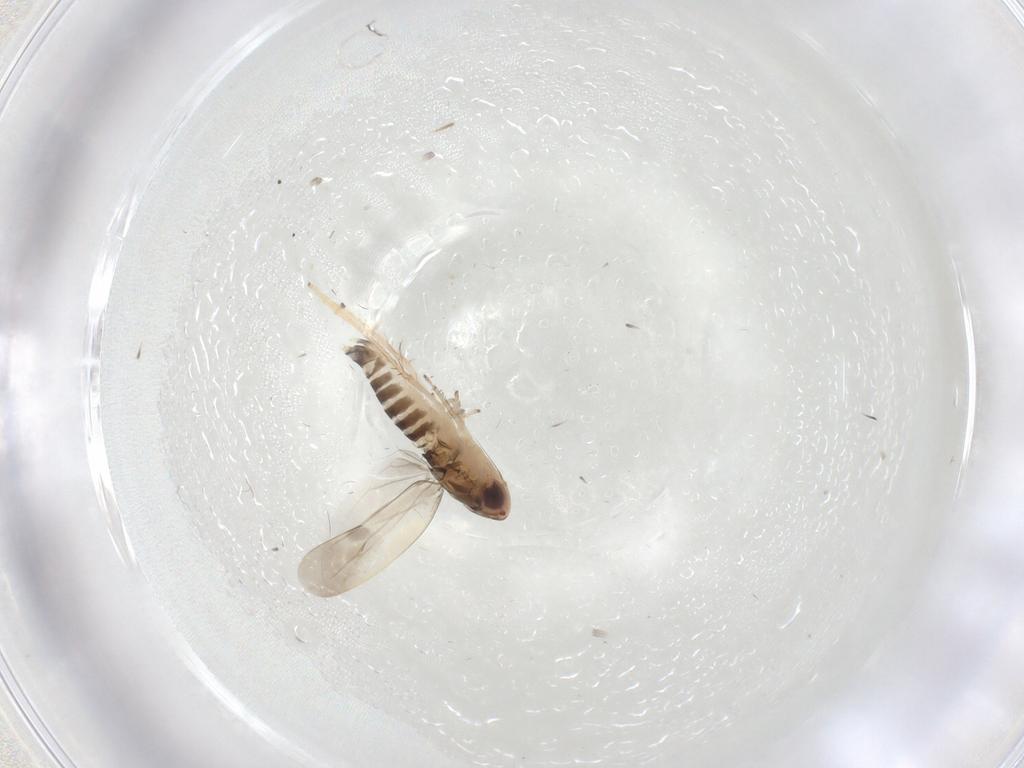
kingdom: Animalia
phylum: Arthropoda
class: Insecta
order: Hemiptera
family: Cicadellidae
